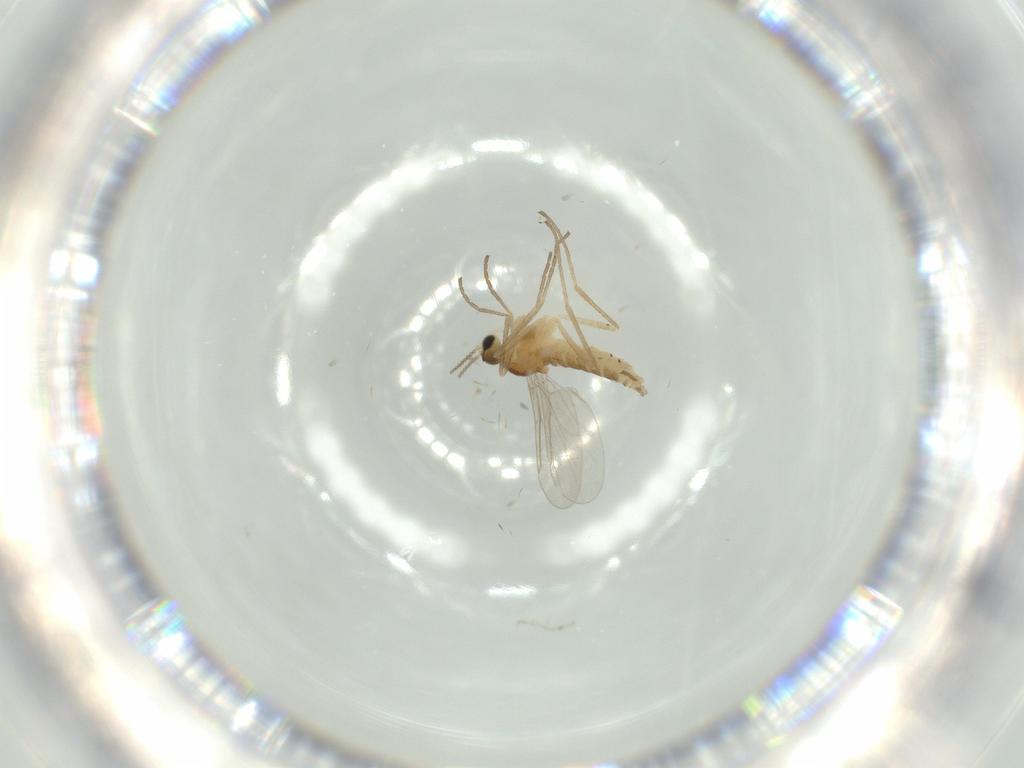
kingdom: Animalia
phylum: Arthropoda
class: Insecta
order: Diptera
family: Cecidomyiidae
